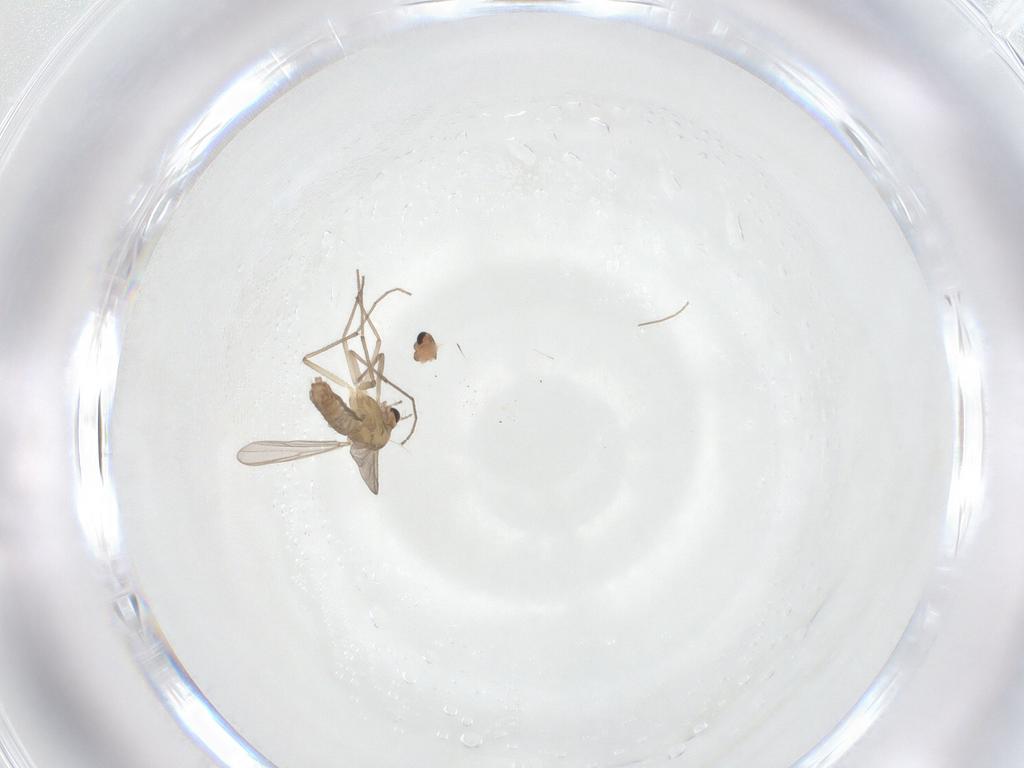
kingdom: Animalia
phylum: Arthropoda
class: Insecta
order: Diptera
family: Chironomidae
